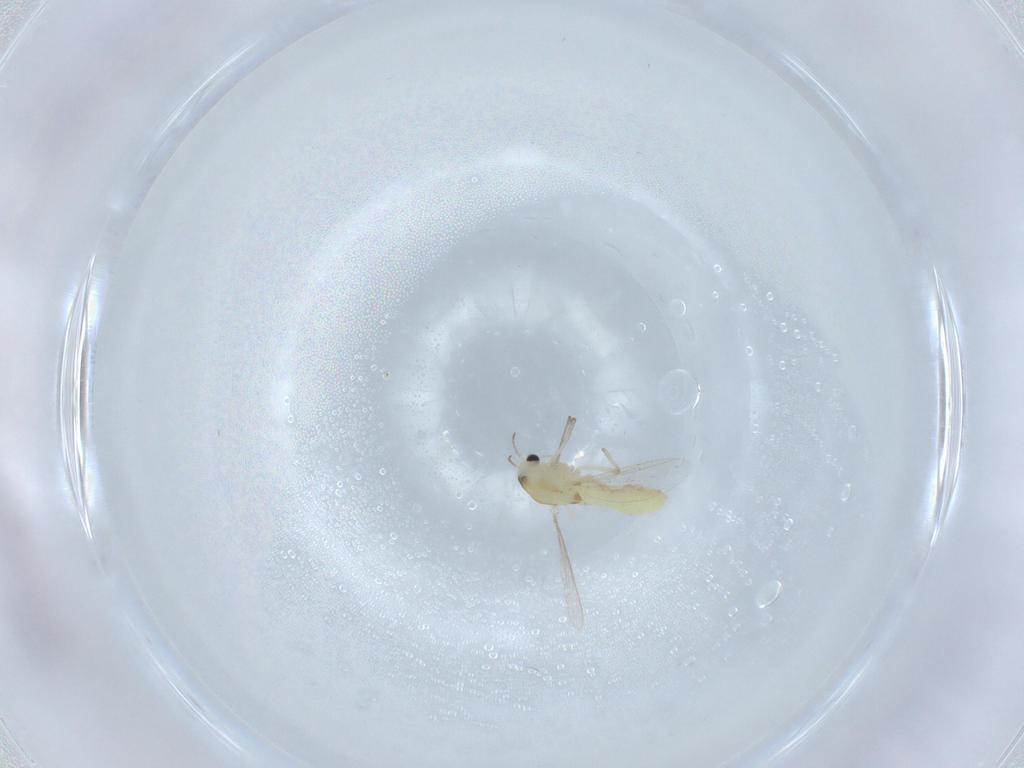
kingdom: Animalia
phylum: Arthropoda
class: Insecta
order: Diptera
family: Chironomidae
